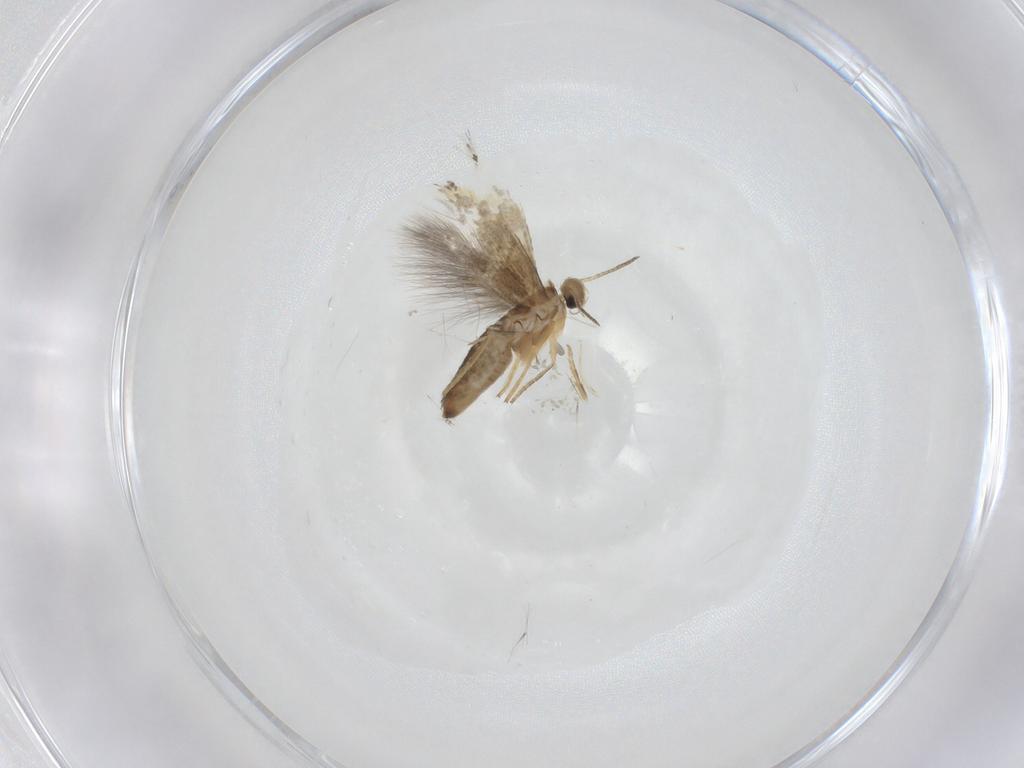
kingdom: Animalia
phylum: Arthropoda
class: Insecta
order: Lepidoptera
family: Heliozelidae
